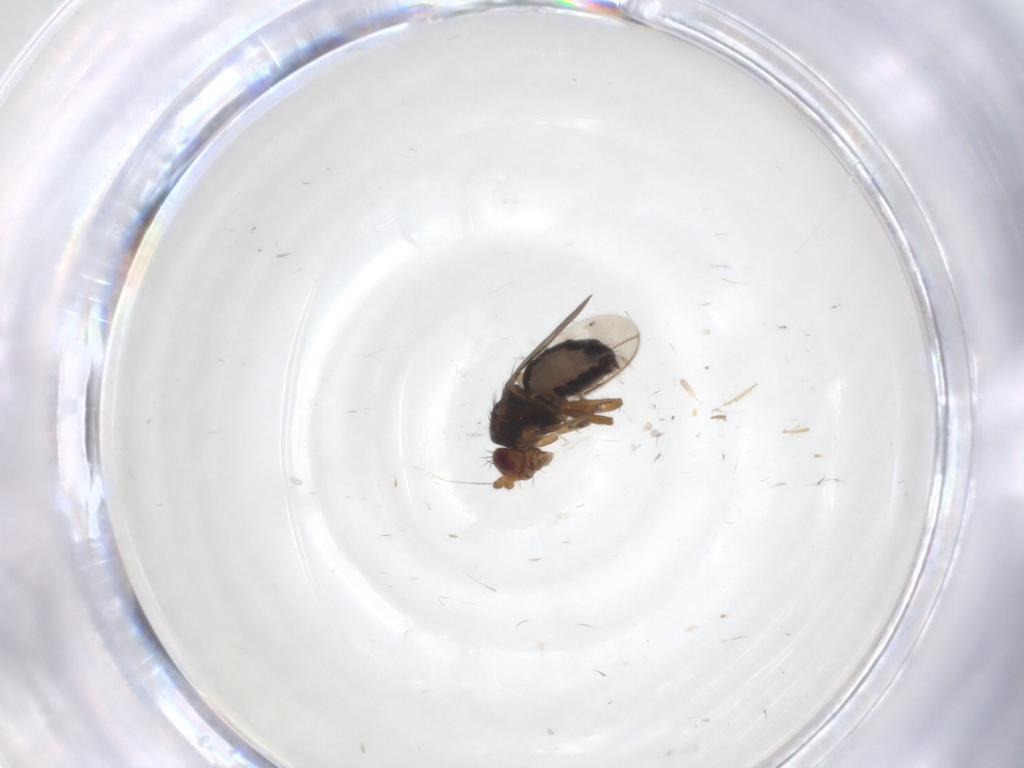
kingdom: Animalia
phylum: Arthropoda
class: Insecta
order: Diptera
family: Sphaeroceridae
